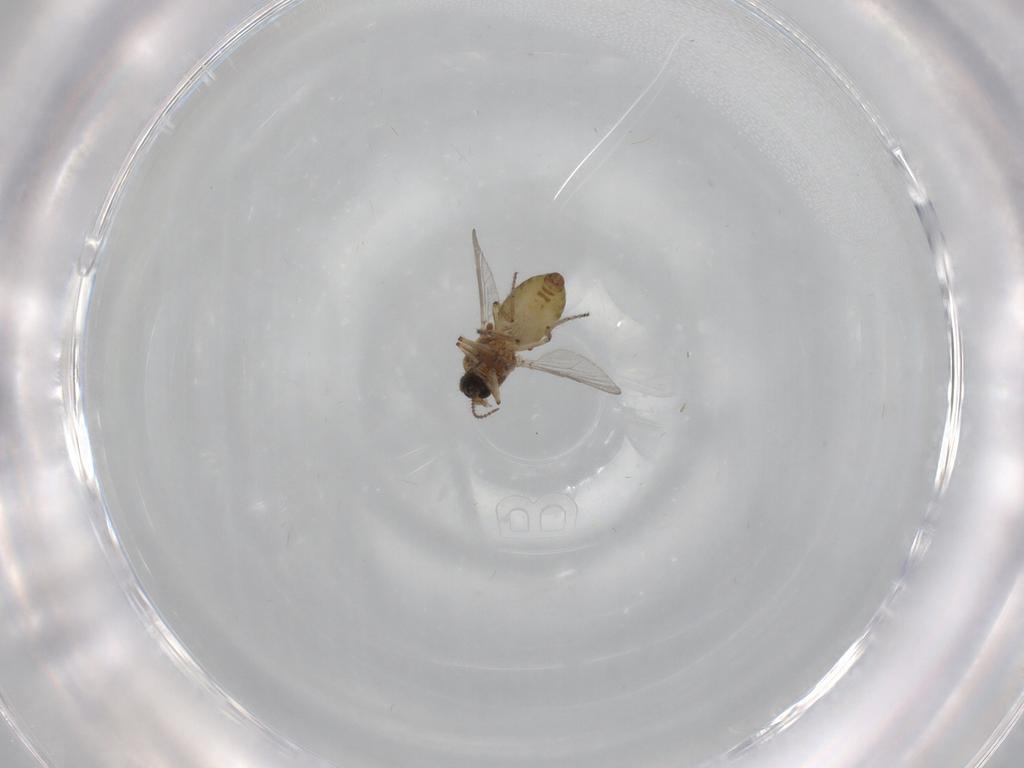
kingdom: Animalia
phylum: Arthropoda
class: Insecta
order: Diptera
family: Ceratopogonidae
